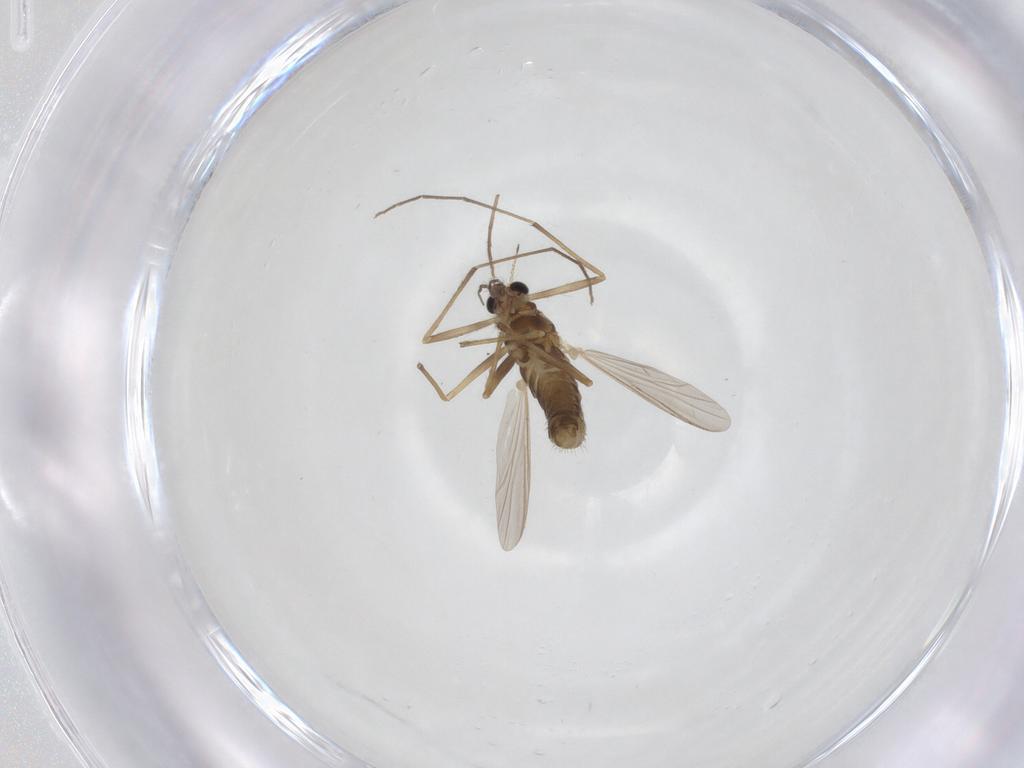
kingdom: Animalia
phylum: Arthropoda
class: Insecta
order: Diptera
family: Chironomidae
